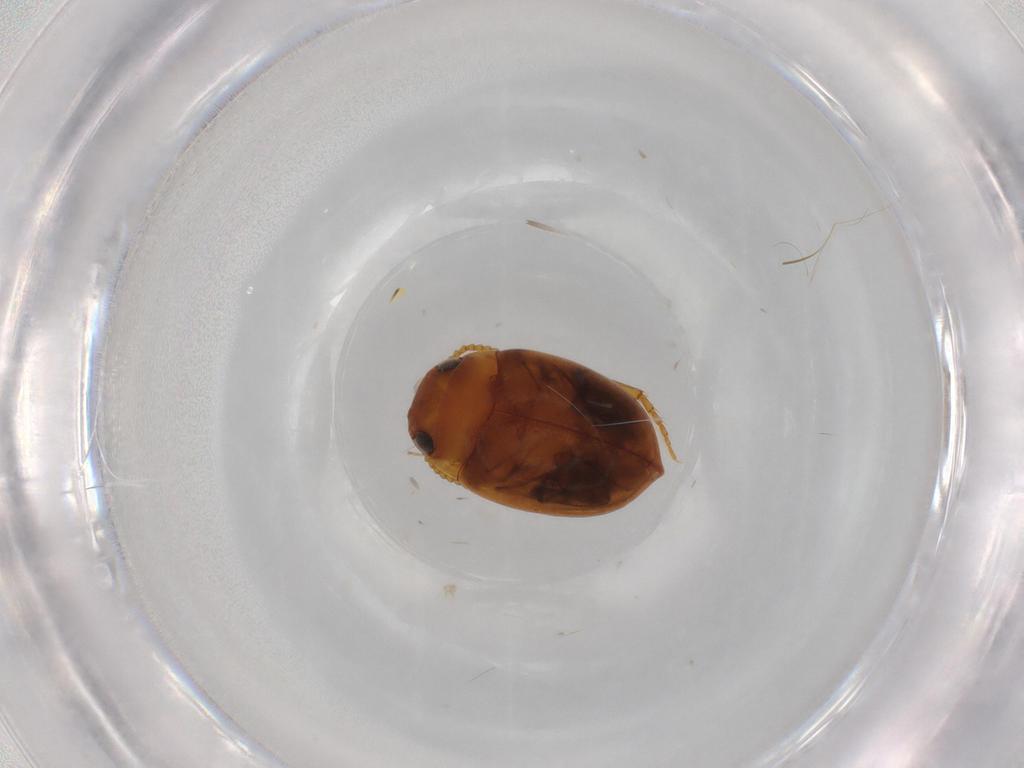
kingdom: Animalia
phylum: Arthropoda
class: Insecta
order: Coleoptera
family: Dytiscidae
